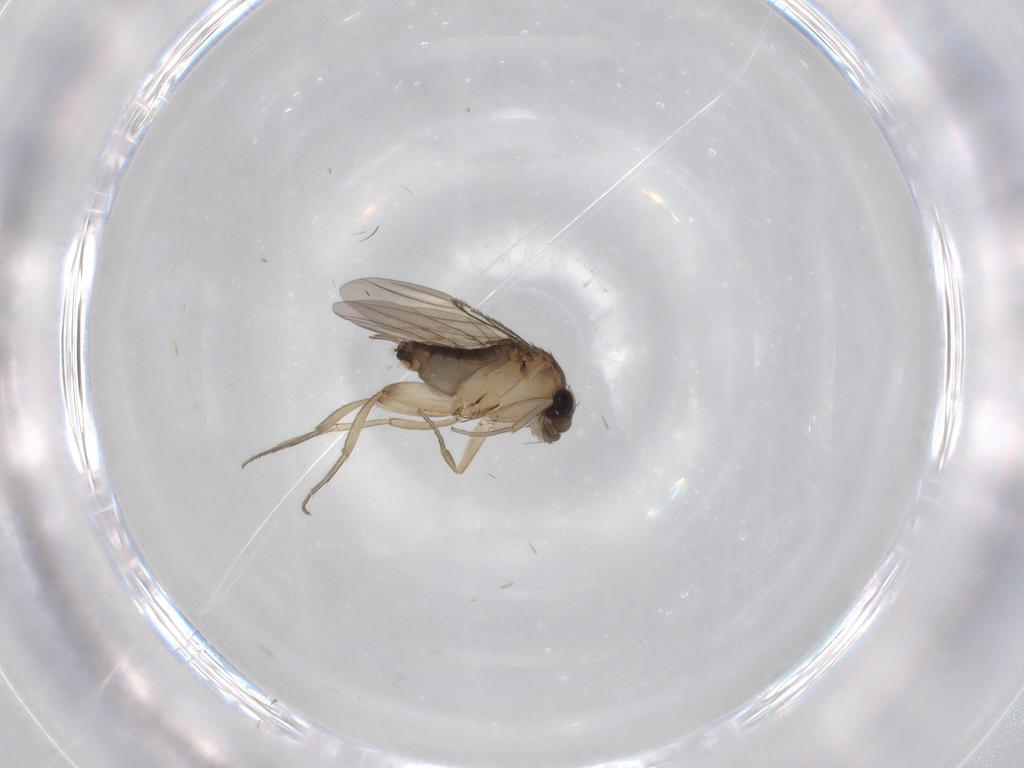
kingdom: Animalia
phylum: Arthropoda
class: Insecta
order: Diptera
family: Phoridae
